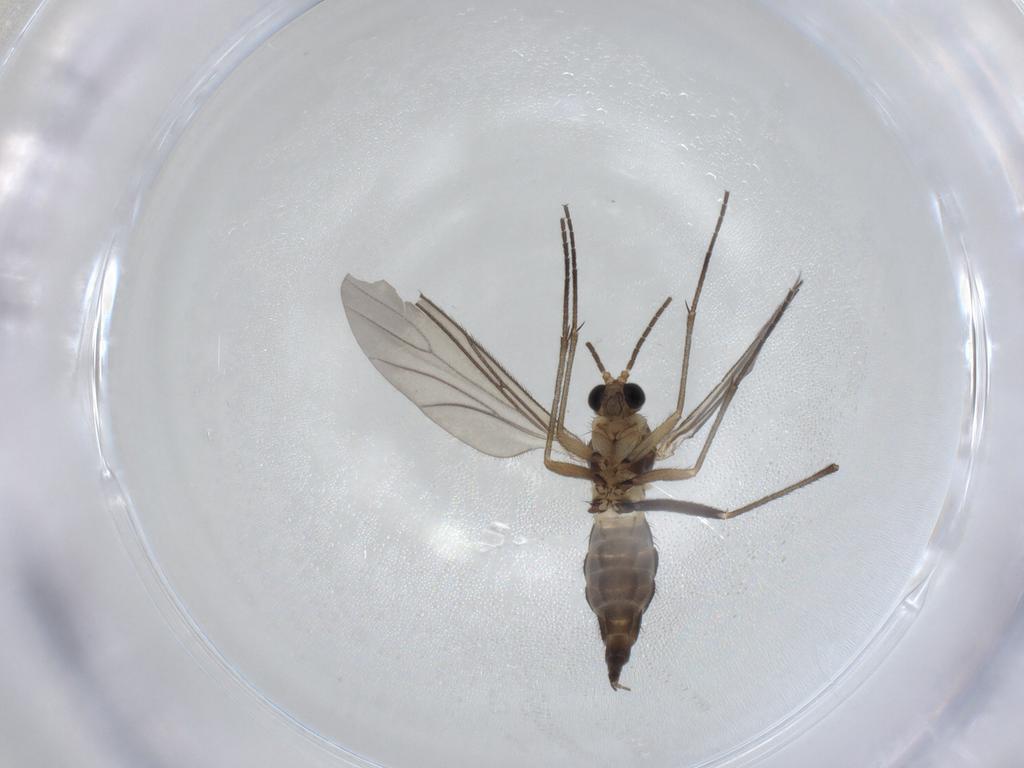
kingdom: Animalia
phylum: Arthropoda
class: Insecta
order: Diptera
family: Sciaridae
